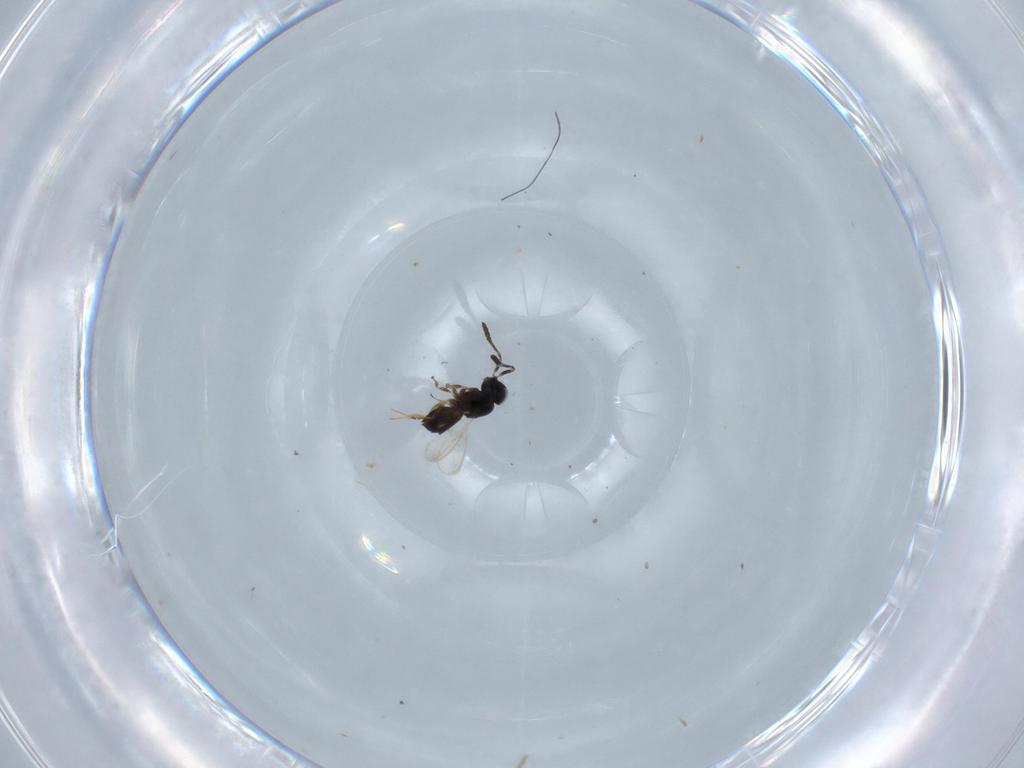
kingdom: Animalia
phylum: Arthropoda
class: Insecta
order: Hymenoptera
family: Scelionidae
